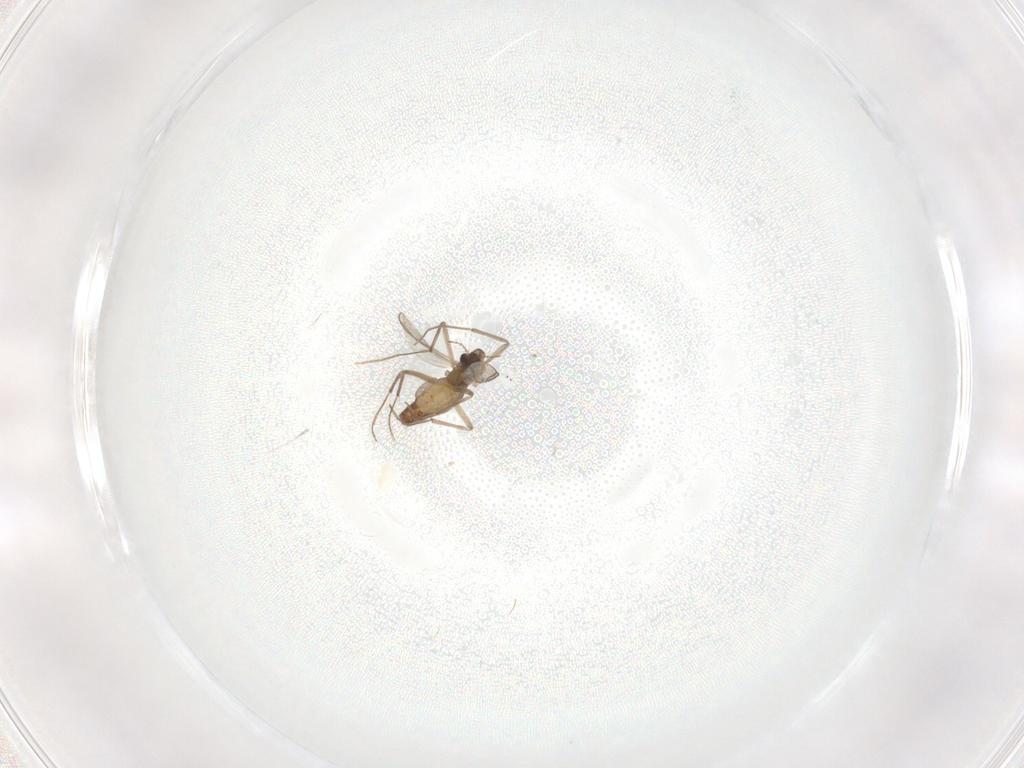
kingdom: Animalia
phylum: Arthropoda
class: Insecta
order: Diptera
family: Chironomidae
